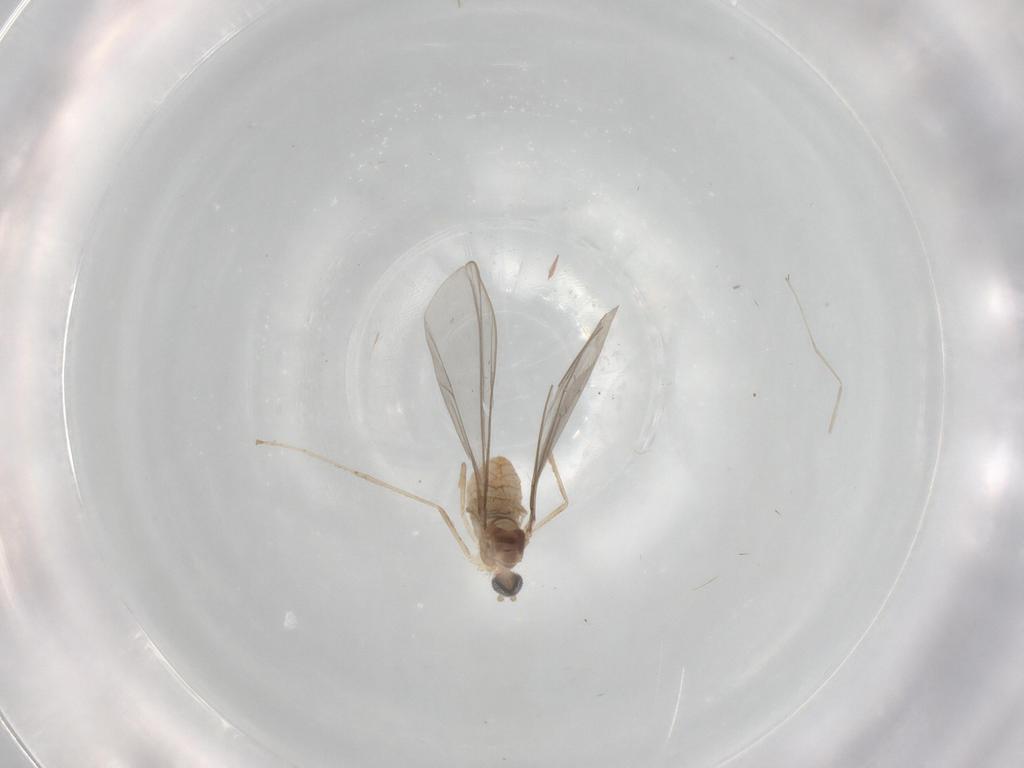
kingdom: Animalia
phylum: Arthropoda
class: Insecta
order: Diptera
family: Cecidomyiidae
